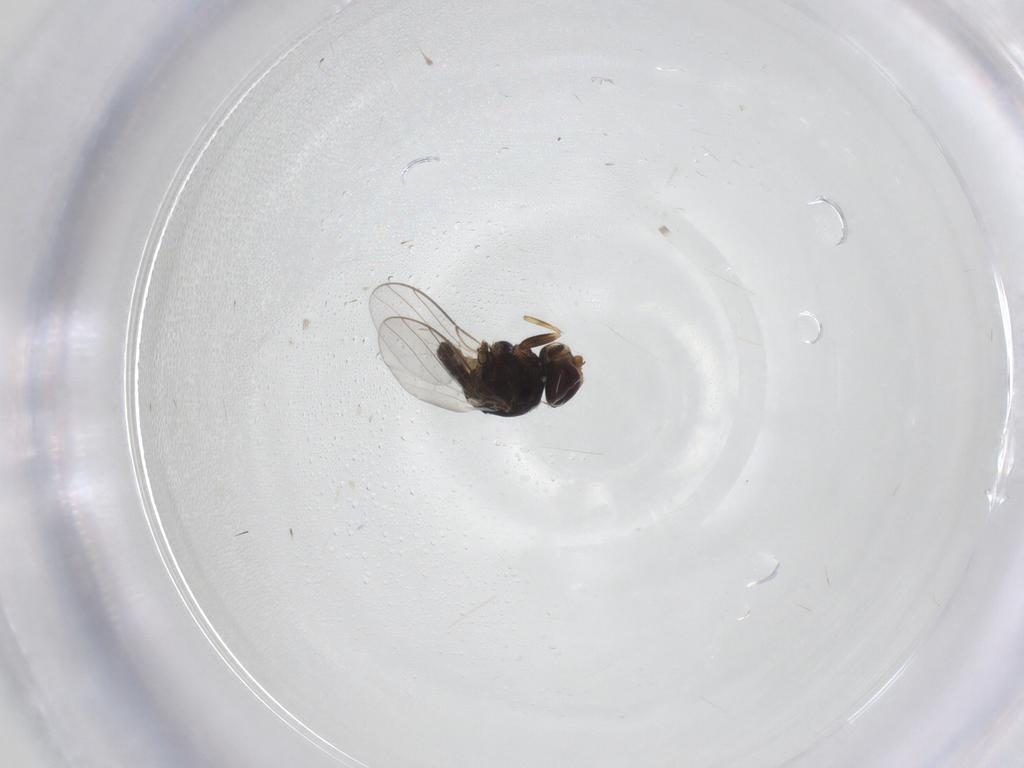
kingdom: Animalia
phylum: Arthropoda
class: Insecta
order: Diptera
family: Chloropidae
